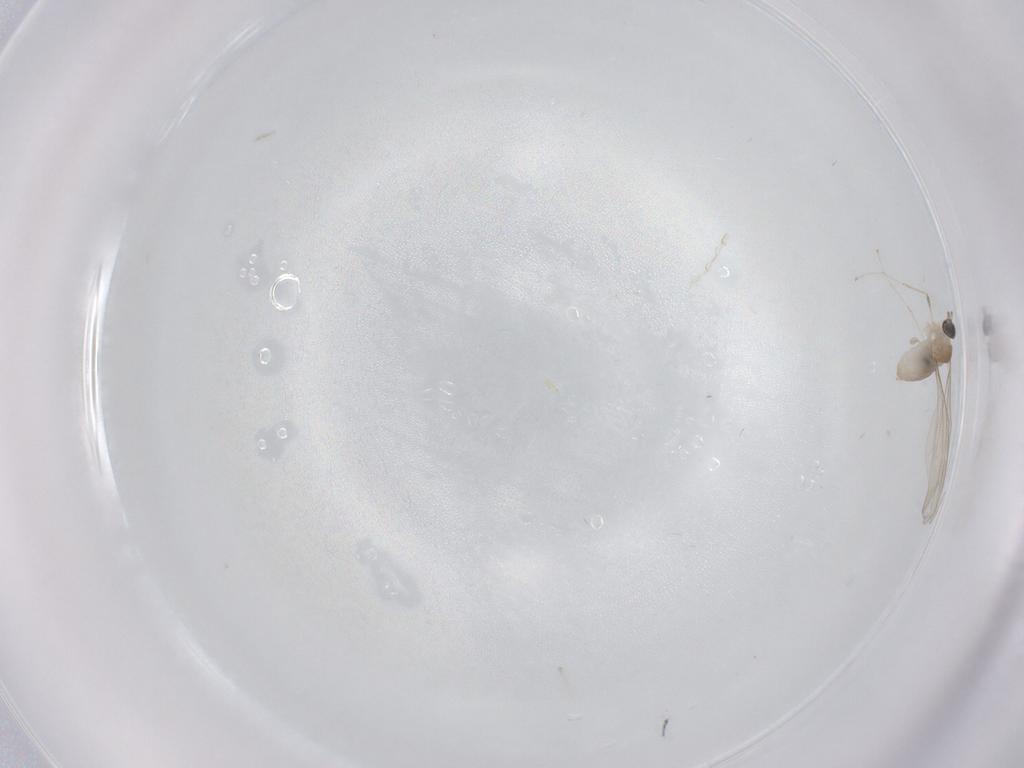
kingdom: Animalia
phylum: Arthropoda
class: Insecta
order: Diptera
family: Cecidomyiidae
